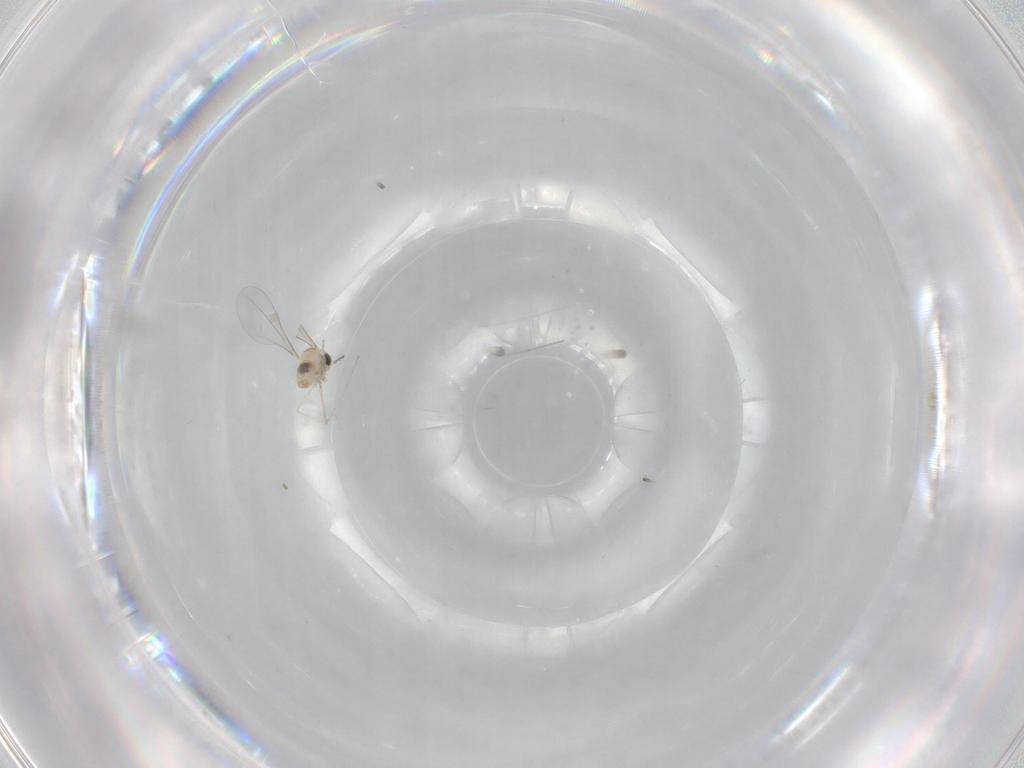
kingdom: Animalia
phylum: Arthropoda
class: Insecta
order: Diptera
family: Cecidomyiidae
